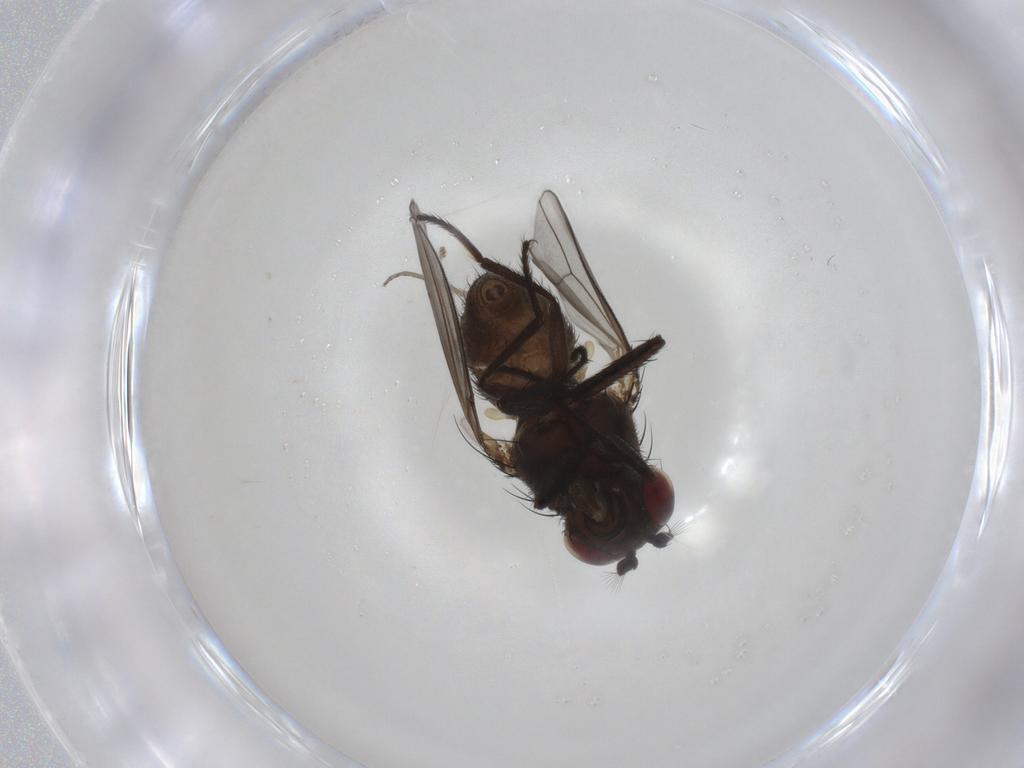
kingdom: Animalia
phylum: Arthropoda
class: Insecta
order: Diptera
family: Ephydridae
